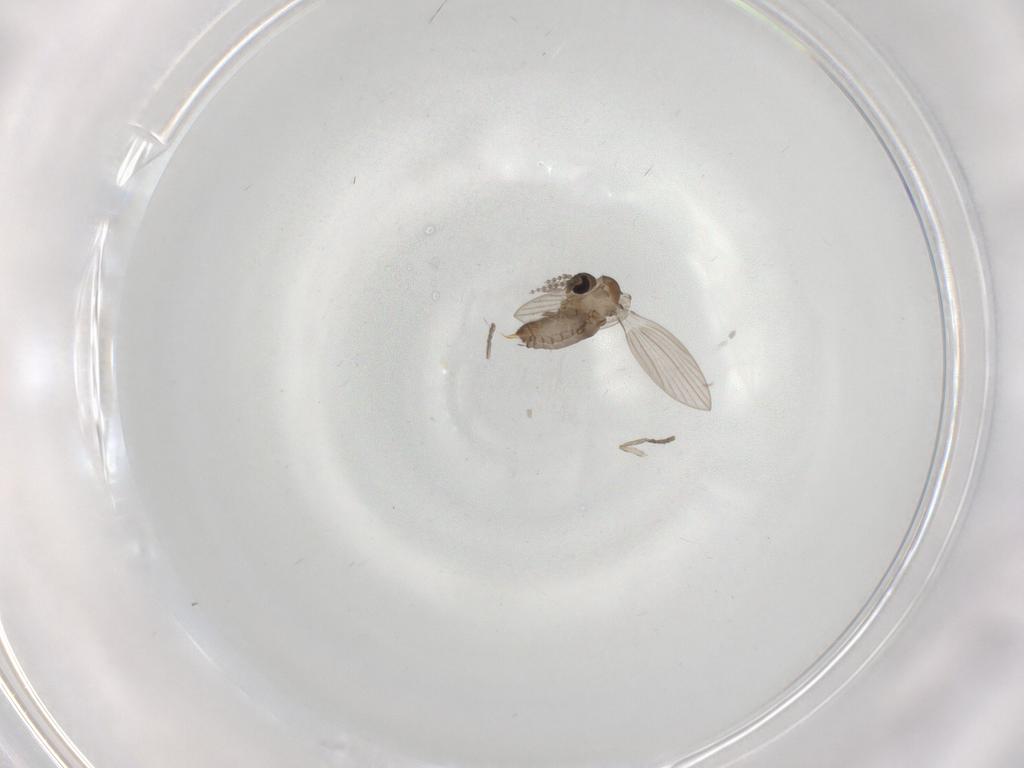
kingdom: Animalia
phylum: Arthropoda
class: Insecta
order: Diptera
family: Psychodidae
